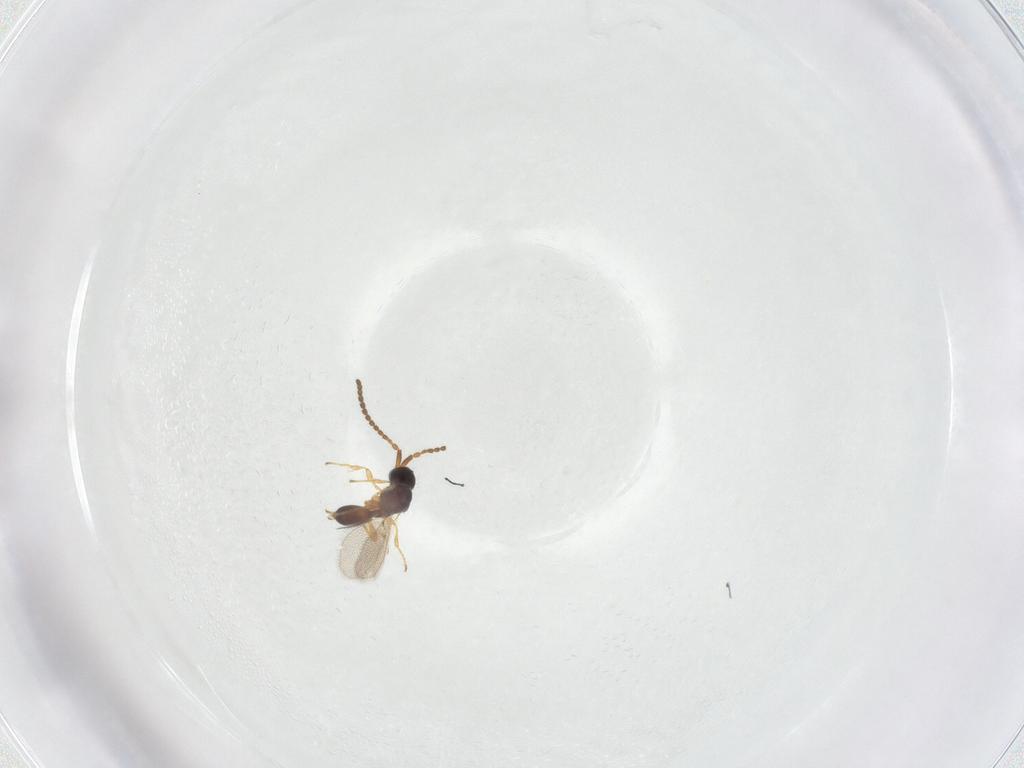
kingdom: Animalia
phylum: Arthropoda
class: Insecta
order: Hymenoptera
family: Diapriidae
